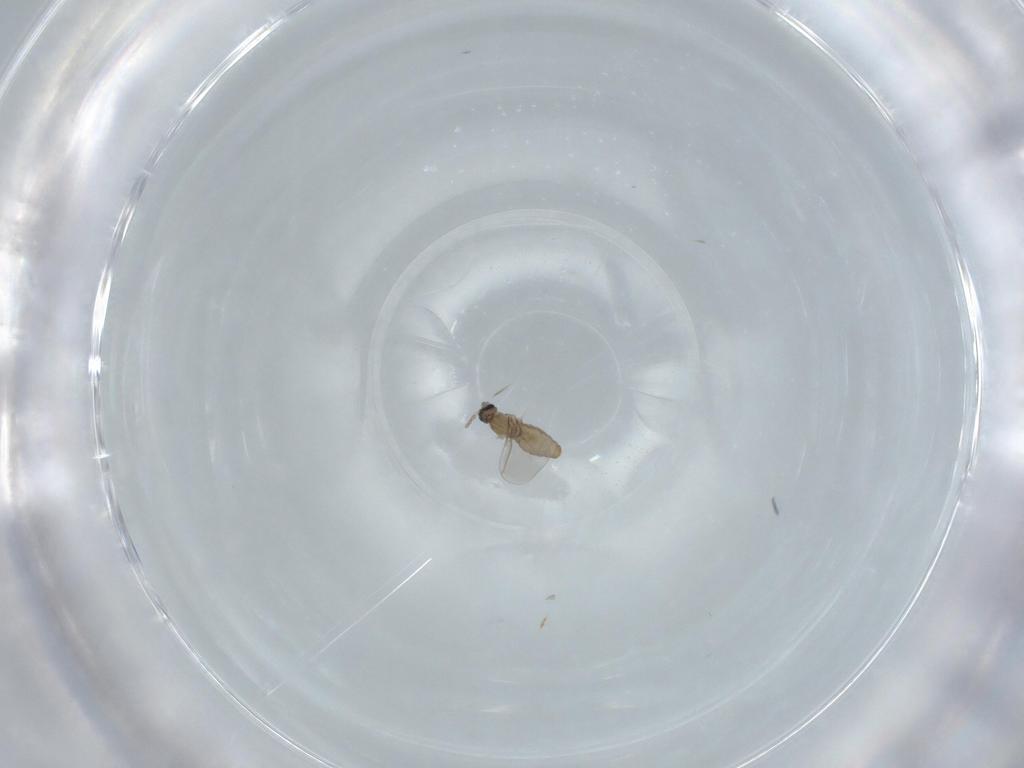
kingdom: Animalia
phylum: Arthropoda
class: Insecta
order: Diptera
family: Cecidomyiidae
